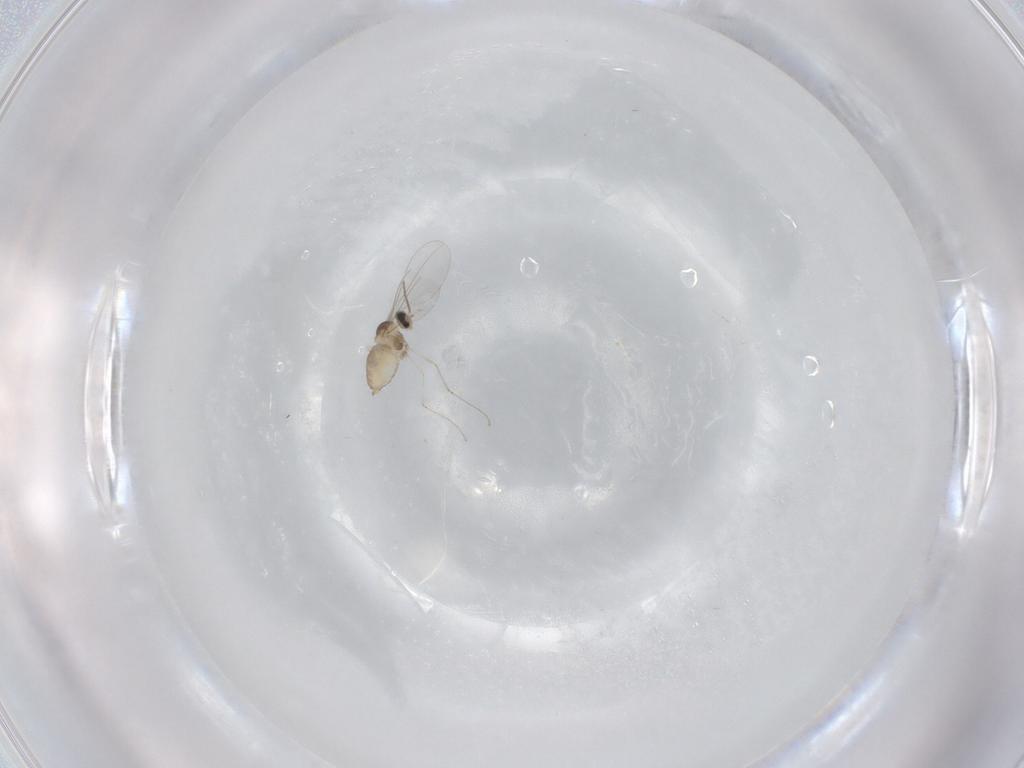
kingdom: Animalia
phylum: Arthropoda
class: Insecta
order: Diptera
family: Cecidomyiidae
